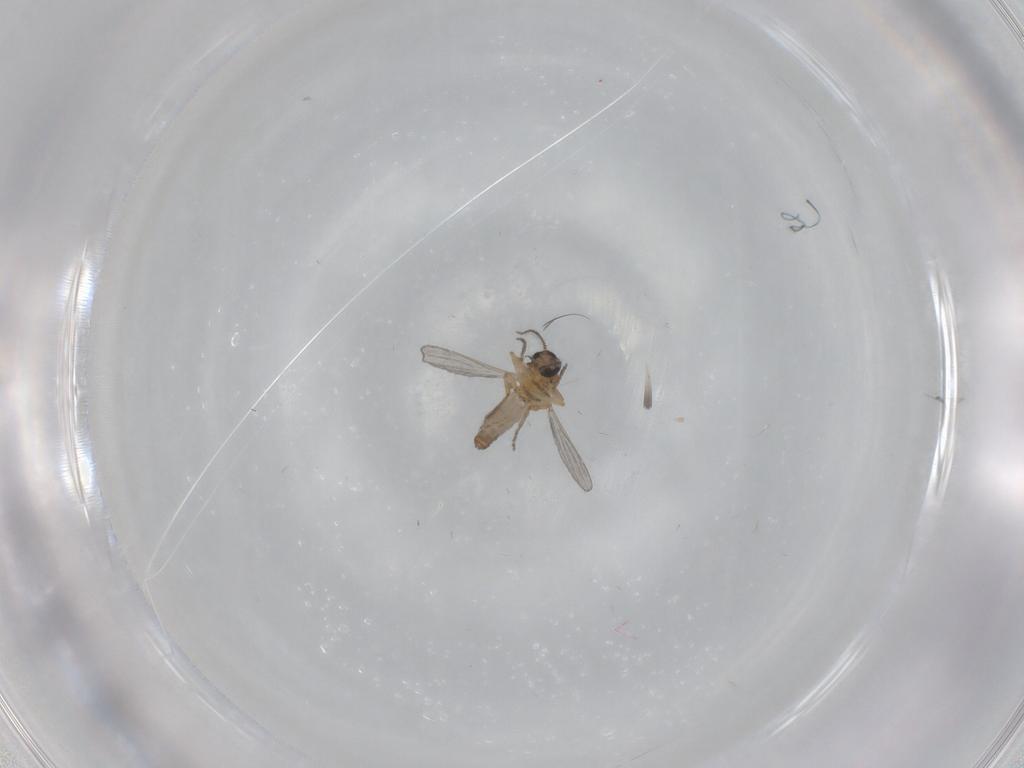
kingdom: Animalia
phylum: Arthropoda
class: Insecta
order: Diptera
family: Ceratopogonidae
